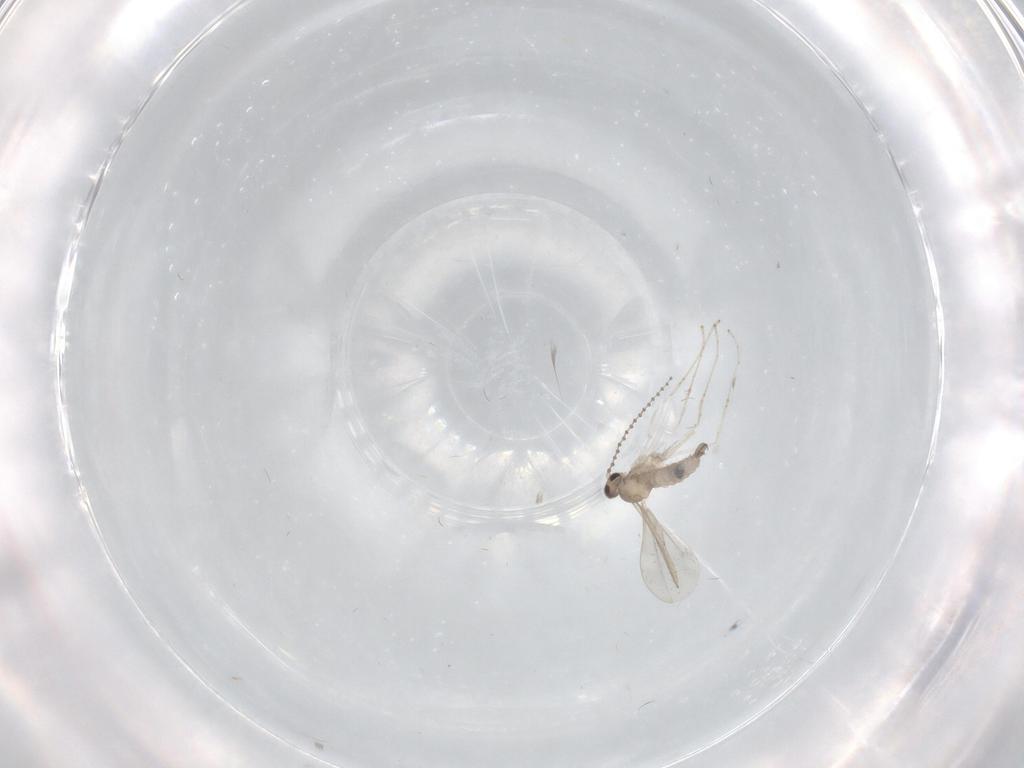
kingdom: Animalia
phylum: Arthropoda
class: Insecta
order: Diptera
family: Cecidomyiidae
